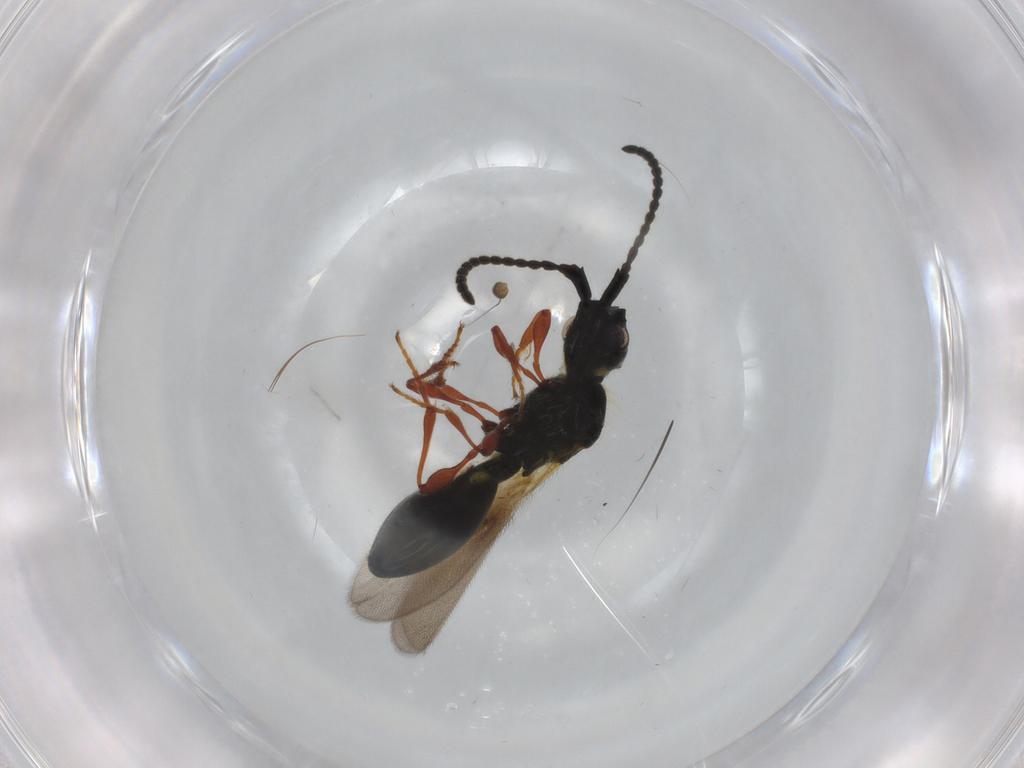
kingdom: Animalia
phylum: Arthropoda
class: Insecta
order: Hymenoptera
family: Diapriidae
